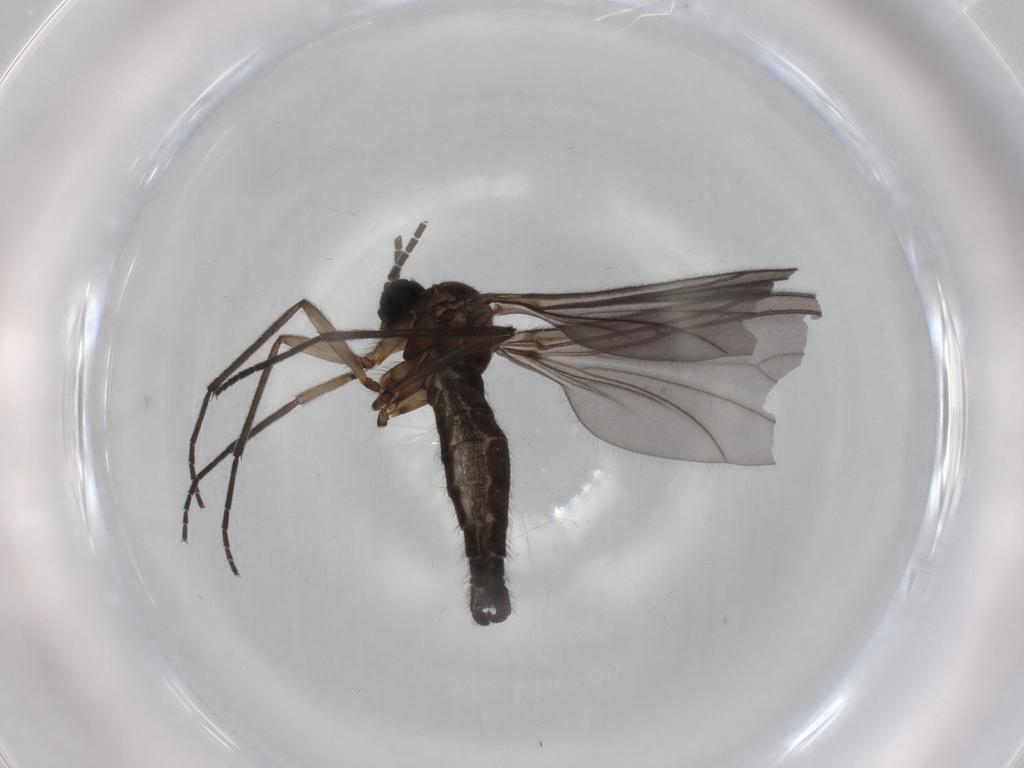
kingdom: Animalia
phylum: Arthropoda
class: Insecta
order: Diptera
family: Sciaridae
